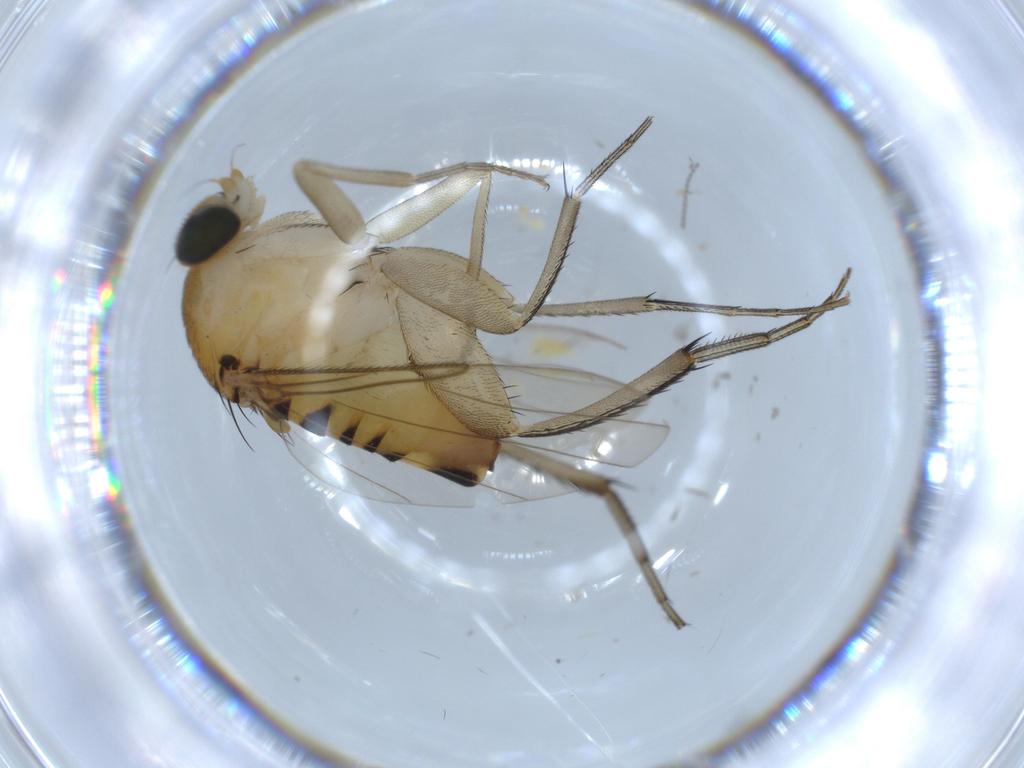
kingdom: Animalia
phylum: Arthropoda
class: Insecta
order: Diptera
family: Phoridae
